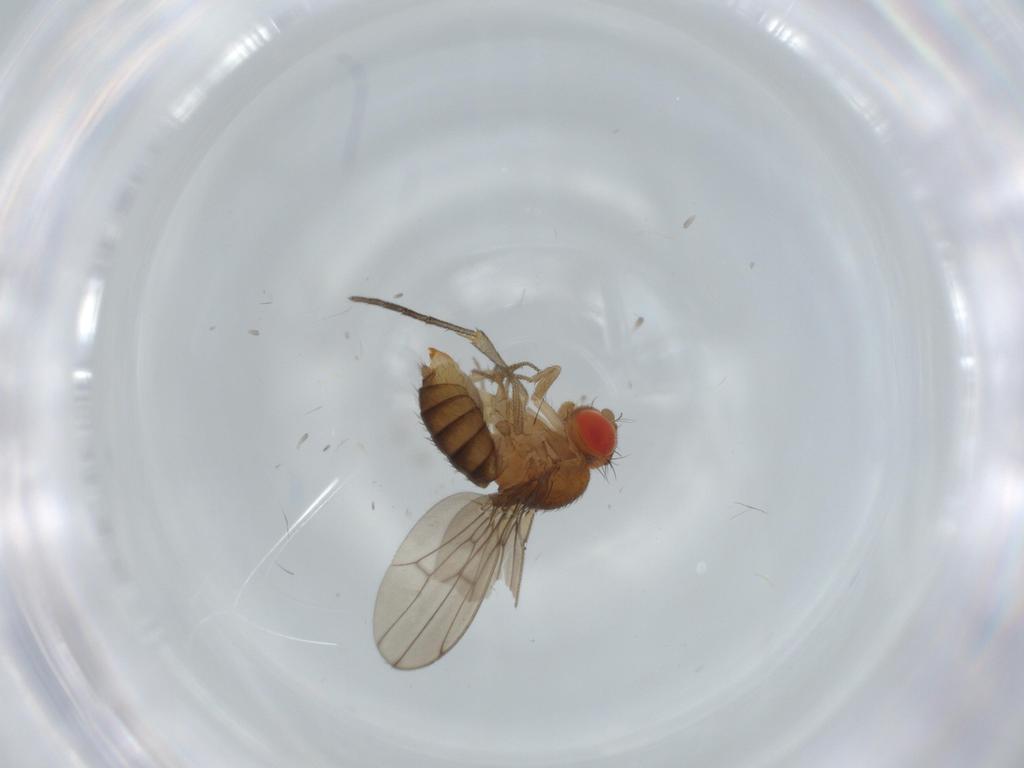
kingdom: Animalia
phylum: Arthropoda
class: Insecta
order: Diptera
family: Drosophilidae
